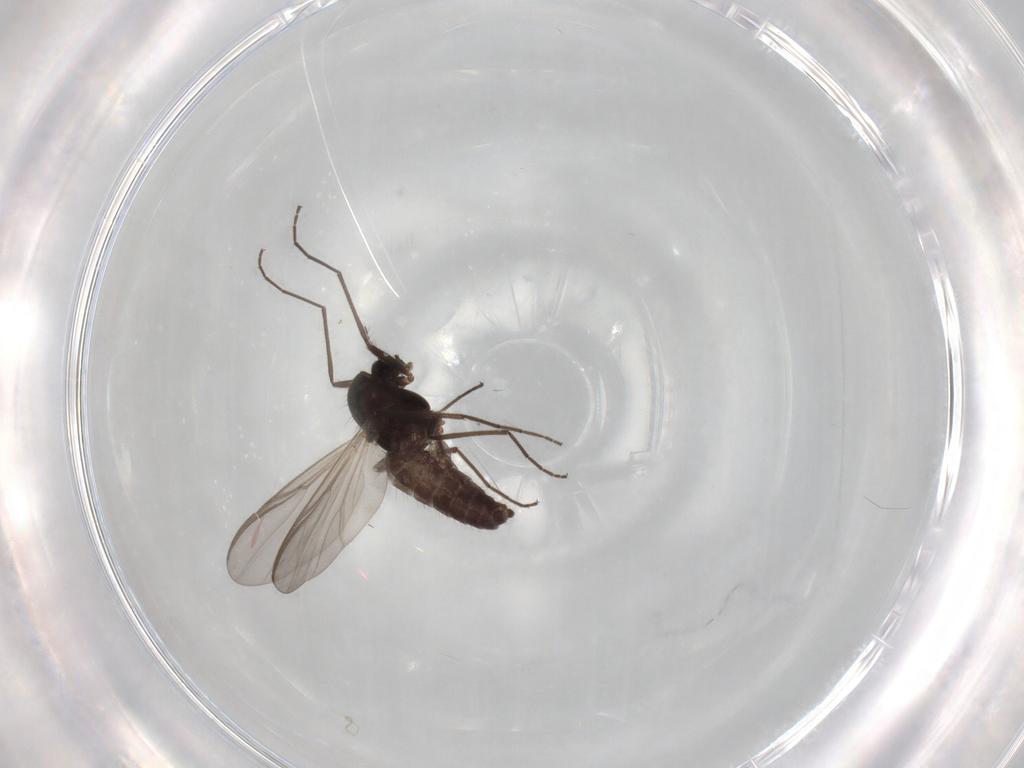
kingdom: Animalia
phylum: Arthropoda
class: Insecta
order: Diptera
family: Chironomidae
